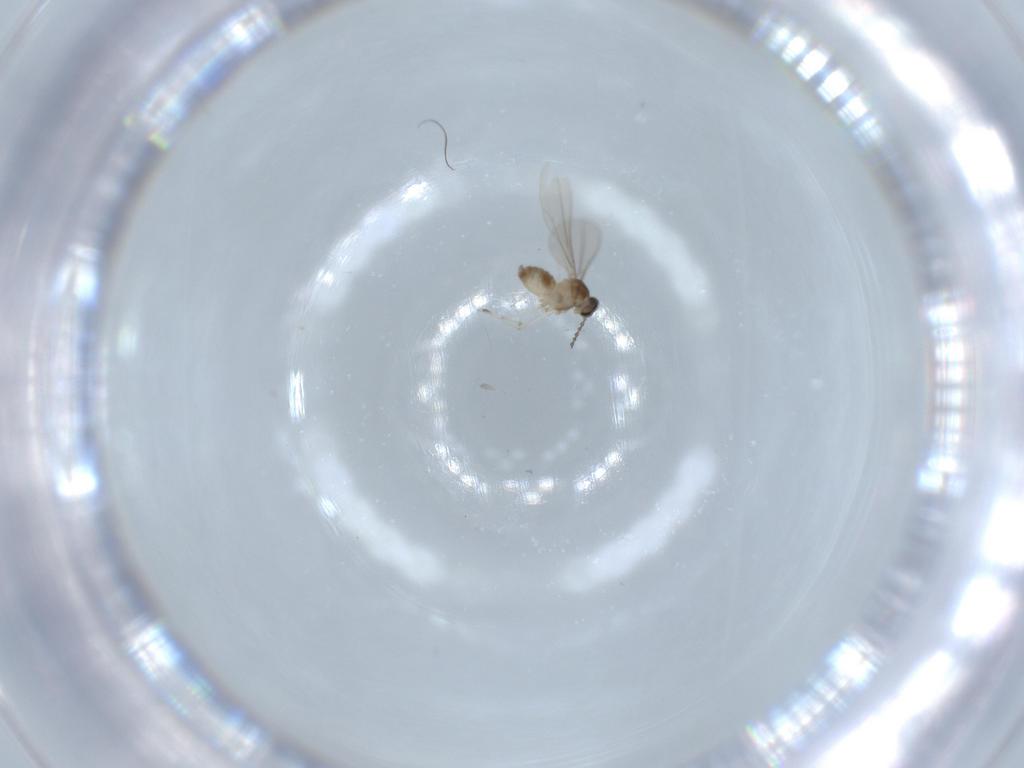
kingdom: Animalia
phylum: Arthropoda
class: Insecta
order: Diptera
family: Cecidomyiidae
